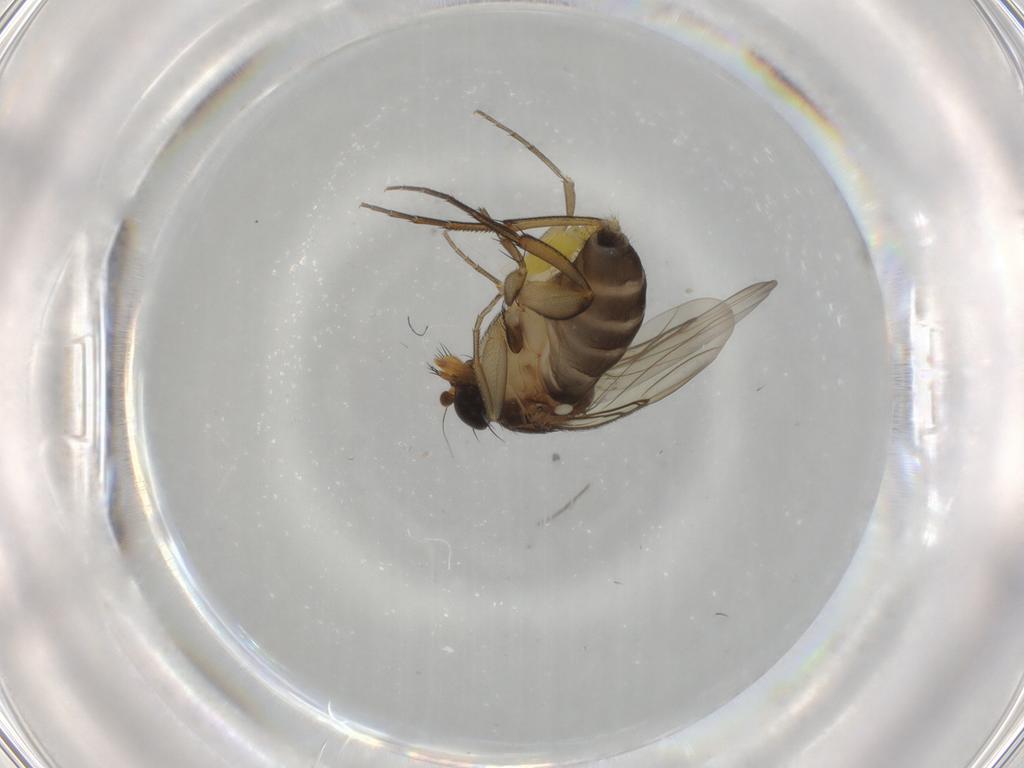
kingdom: Animalia
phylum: Arthropoda
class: Insecta
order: Diptera
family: Phoridae
